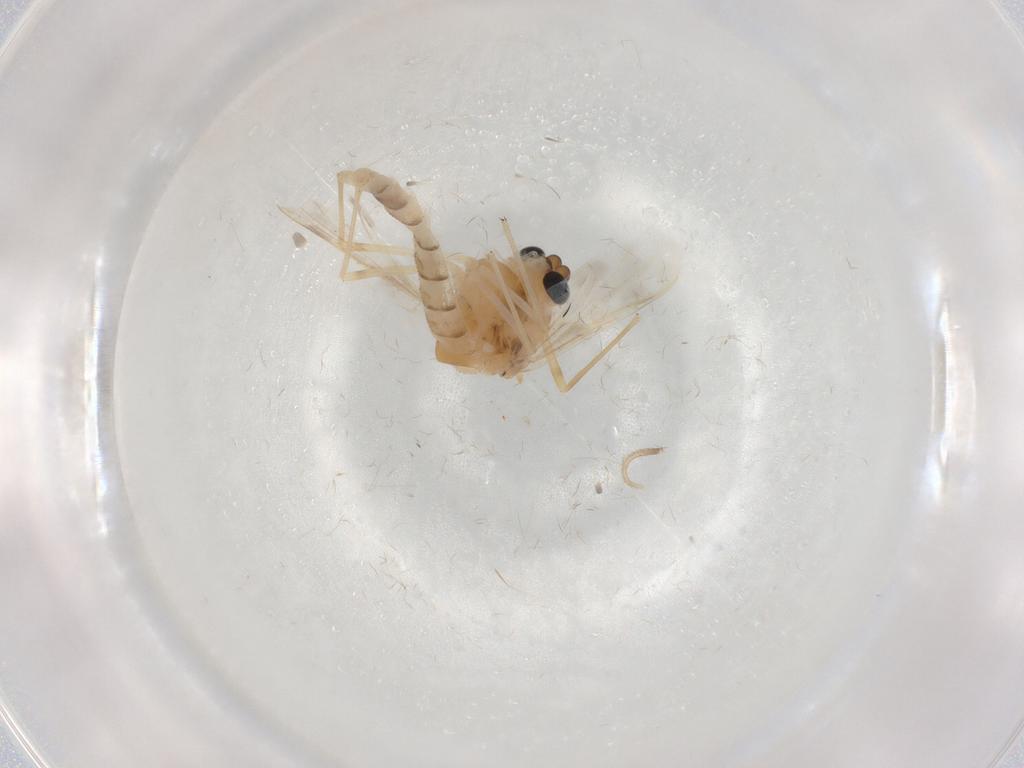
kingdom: Animalia
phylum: Arthropoda
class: Insecta
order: Diptera
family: Chironomidae
